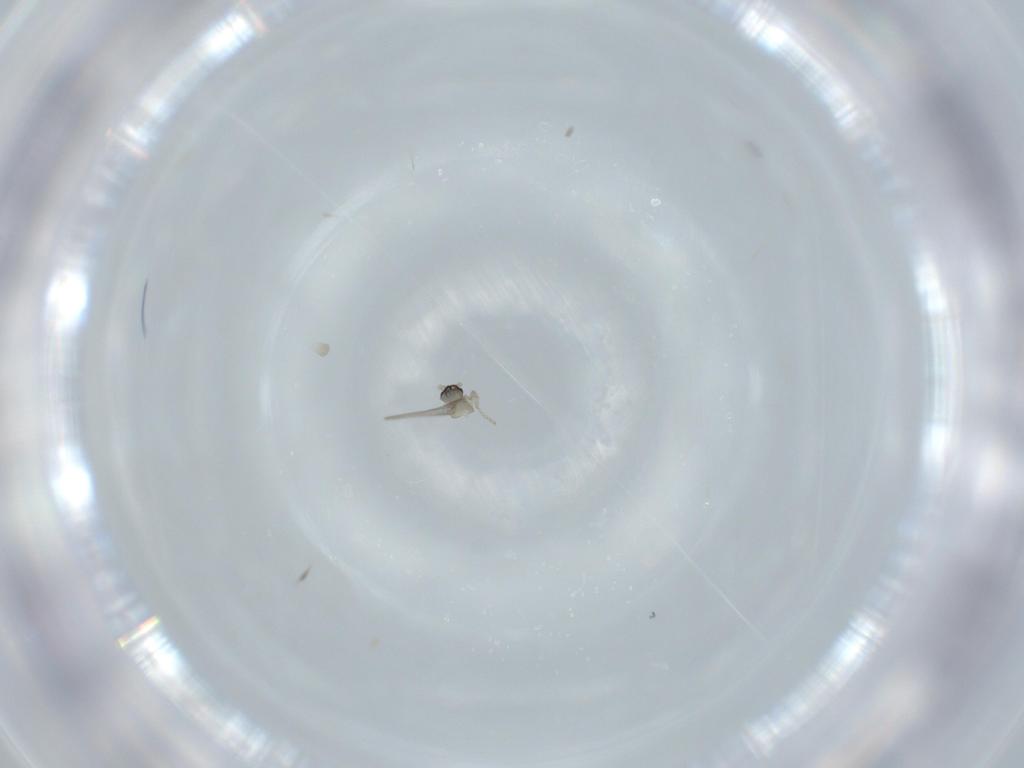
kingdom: Animalia
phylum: Arthropoda
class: Insecta
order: Diptera
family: Cecidomyiidae
